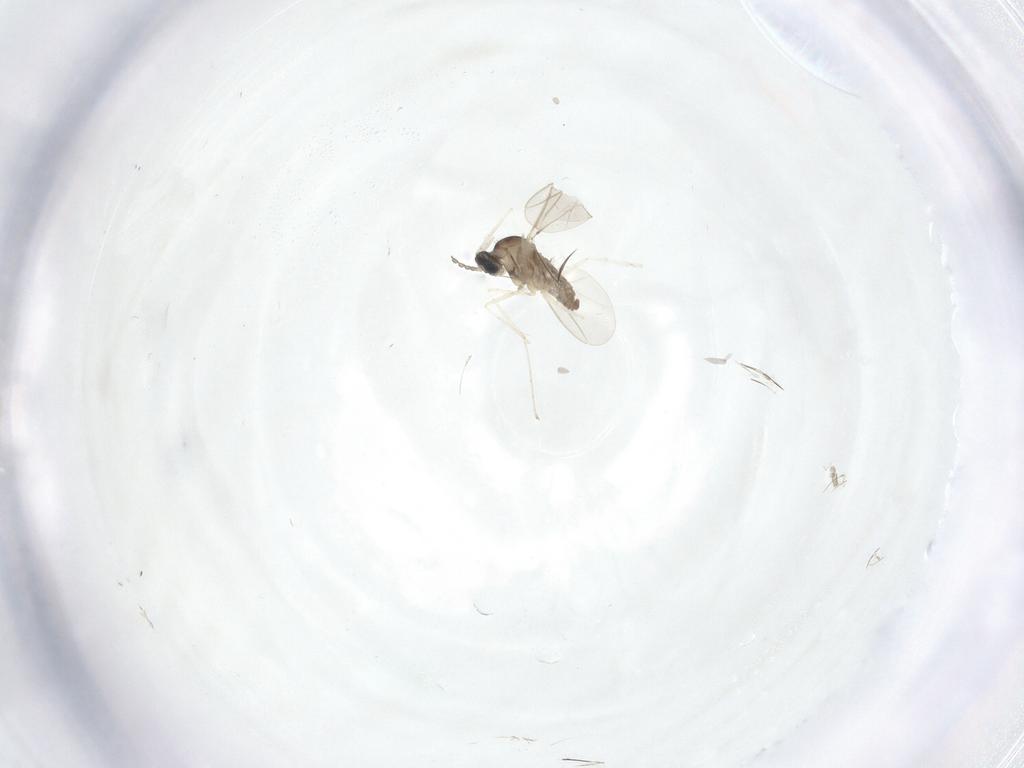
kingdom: Animalia
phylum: Arthropoda
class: Insecta
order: Diptera
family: Cecidomyiidae
